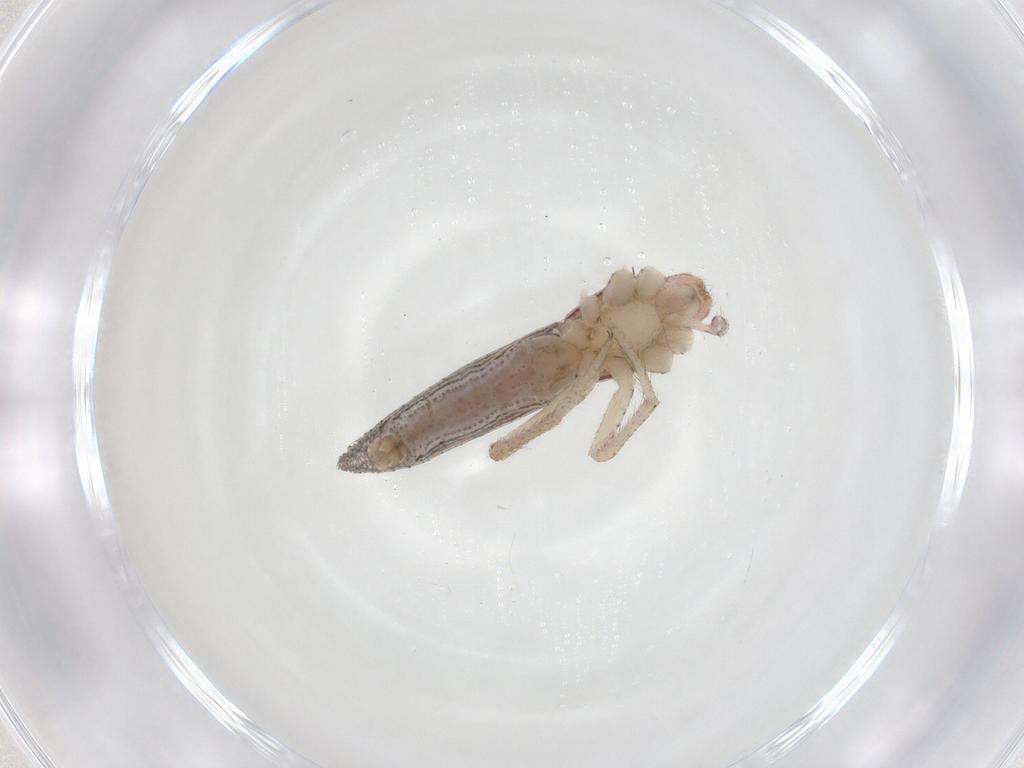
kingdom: Animalia
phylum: Arthropoda
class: Arachnida
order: Araneae
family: Thomisidae
